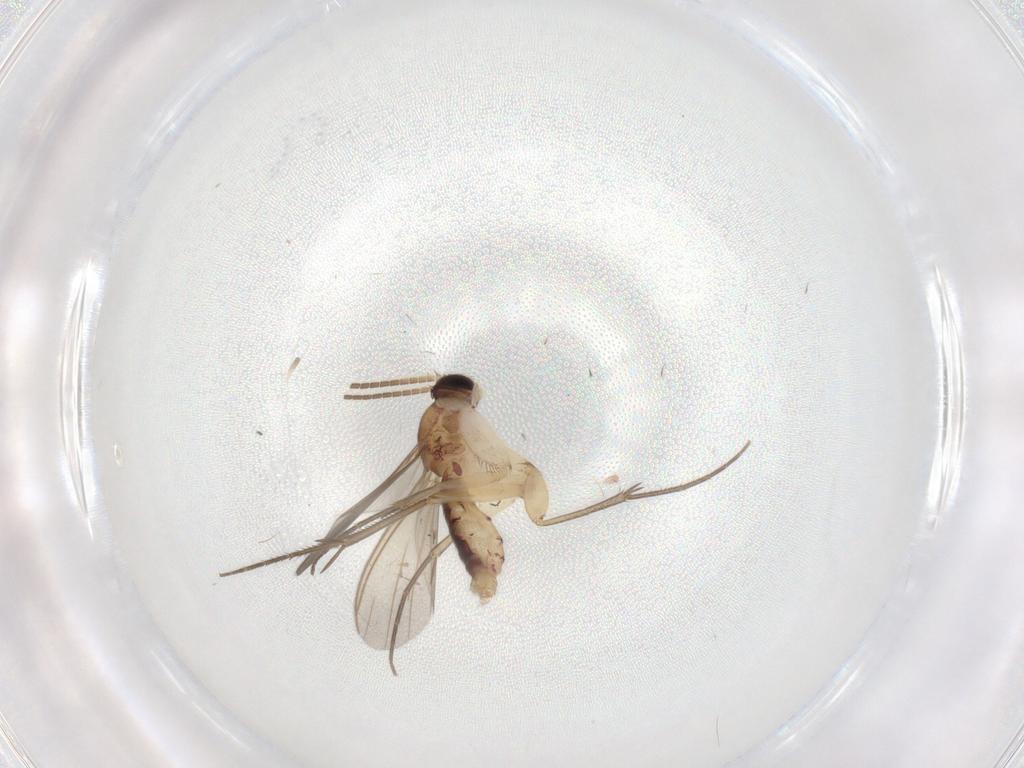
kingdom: Animalia
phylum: Arthropoda
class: Insecta
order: Diptera
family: Mycetophilidae
